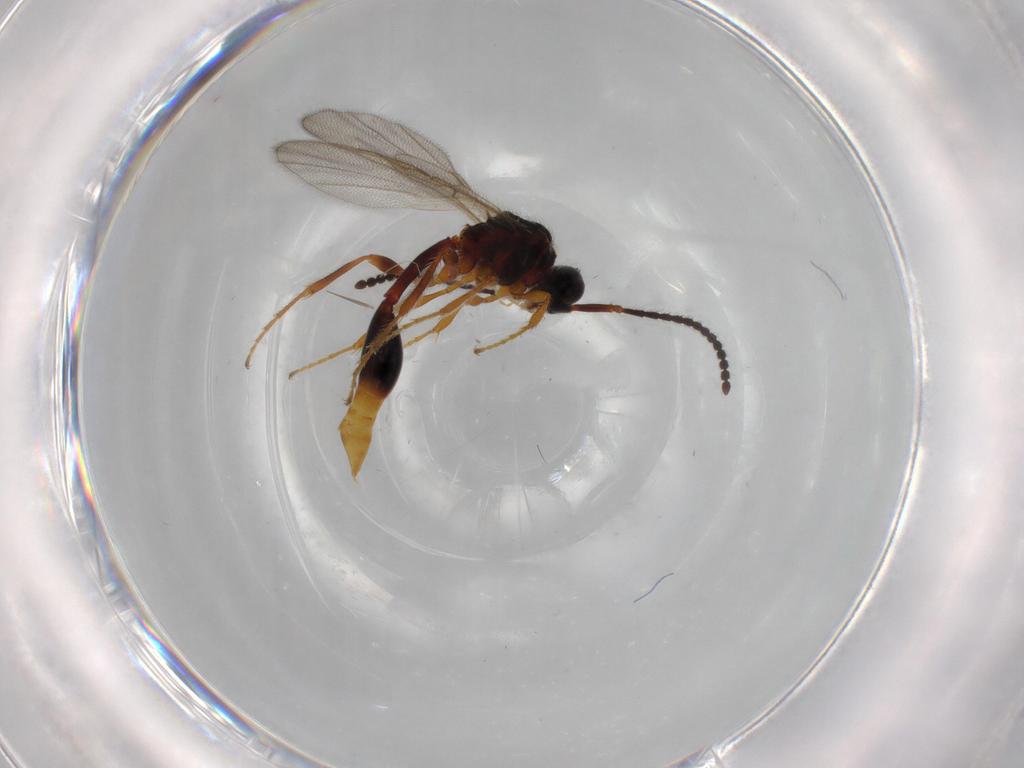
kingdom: Animalia
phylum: Arthropoda
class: Insecta
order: Hymenoptera
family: Diapriidae
